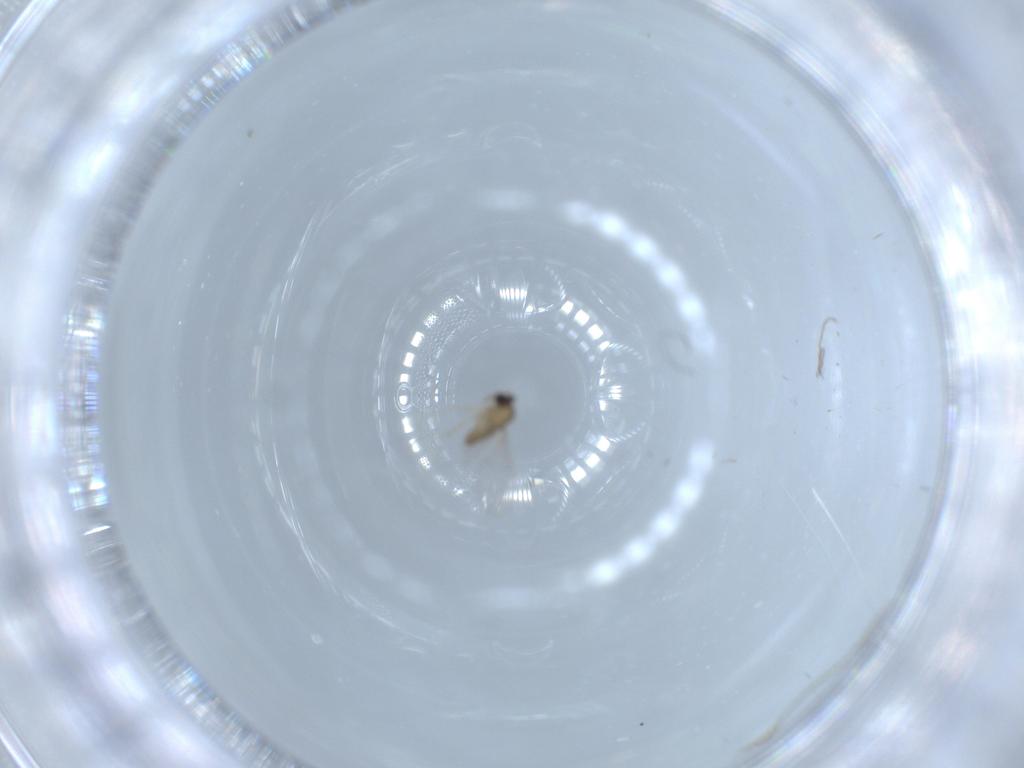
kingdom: Animalia
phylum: Arthropoda
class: Insecta
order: Diptera
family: Cecidomyiidae
